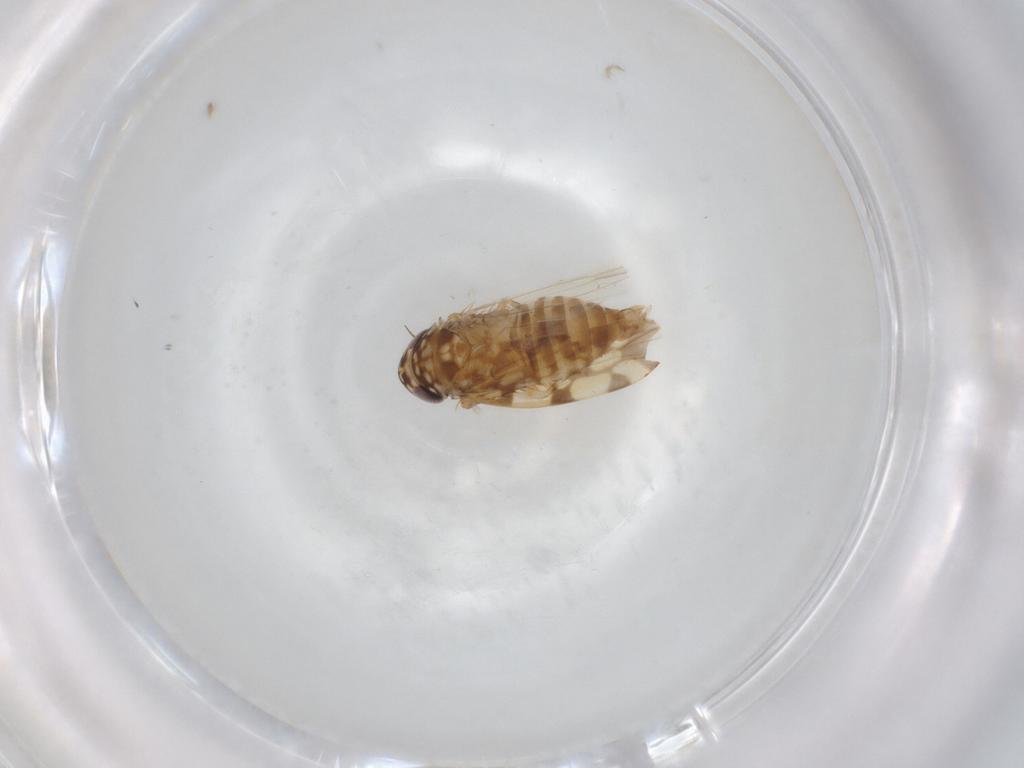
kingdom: Animalia
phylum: Arthropoda
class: Insecta
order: Hemiptera
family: Cicadellidae
